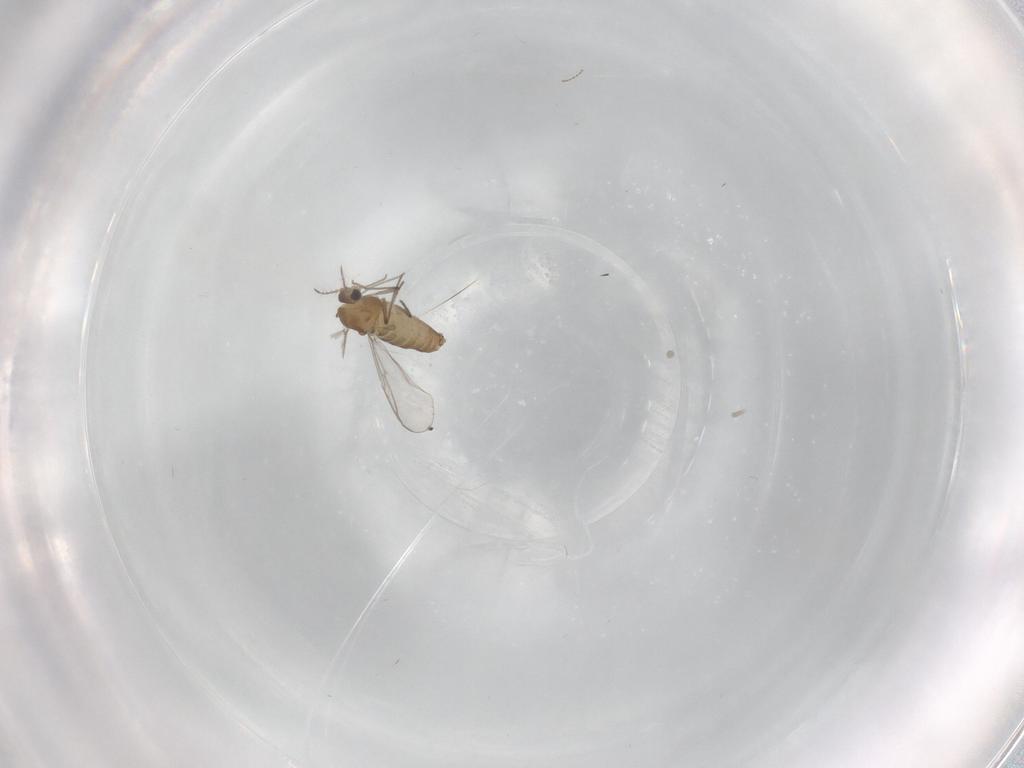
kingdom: Animalia
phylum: Arthropoda
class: Insecta
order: Diptera
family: Chironomidae
